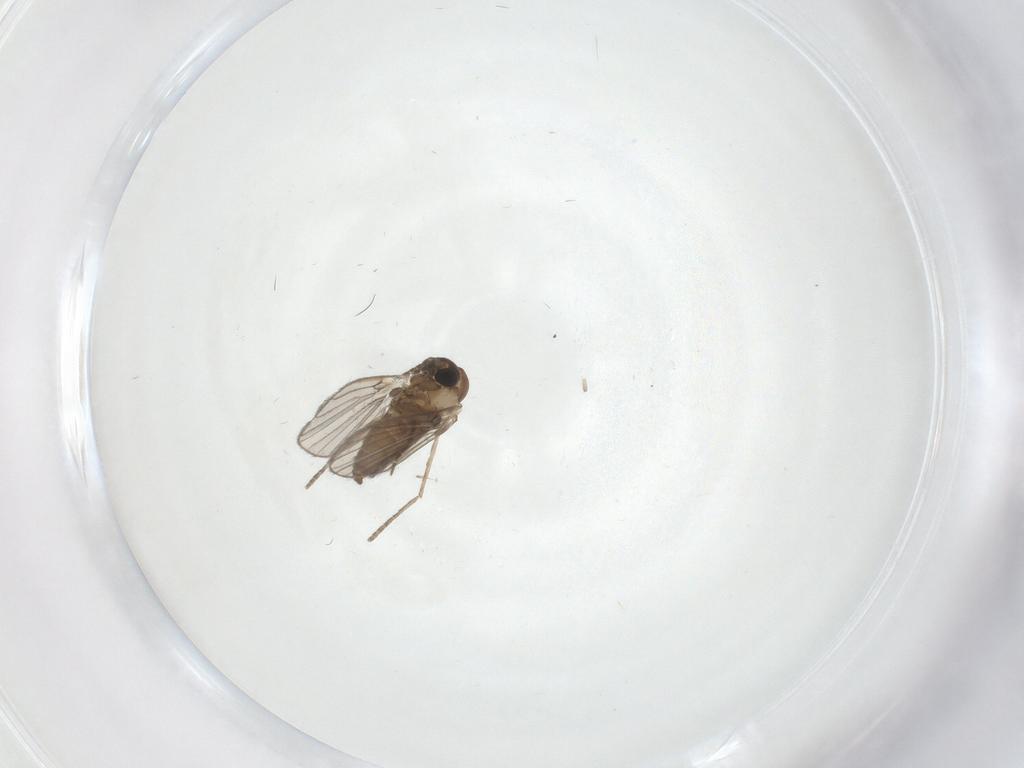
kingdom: Animalia
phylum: Arthropoda
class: Insecta
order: Diptera
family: Sciaridae
